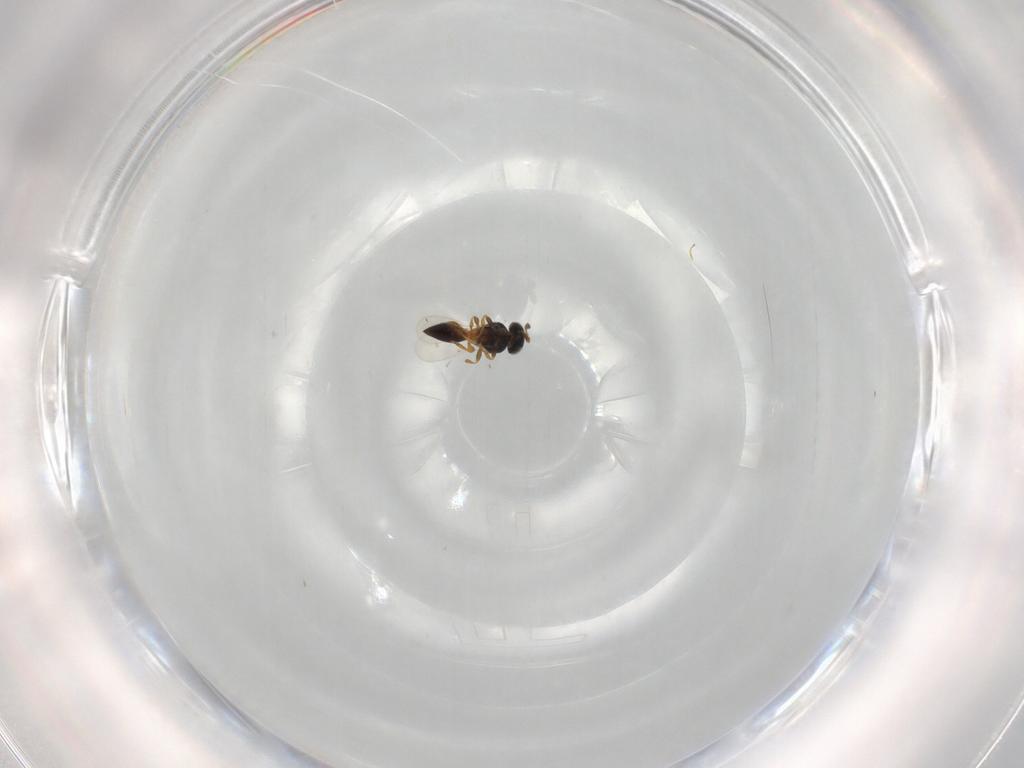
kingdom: Animalia
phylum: Arthropoda
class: Insecta
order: Hymenoptera
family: Platygastridae
